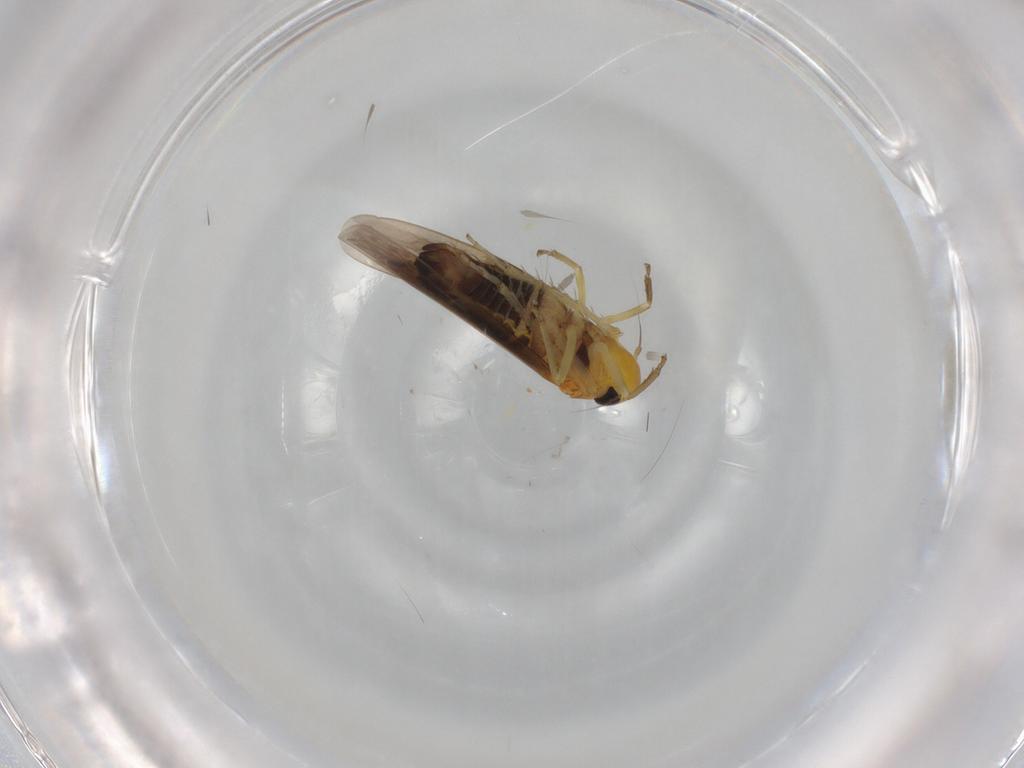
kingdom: Animalia
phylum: Arthropoda
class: Insecta
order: Hemiptera
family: Cicadellidae
